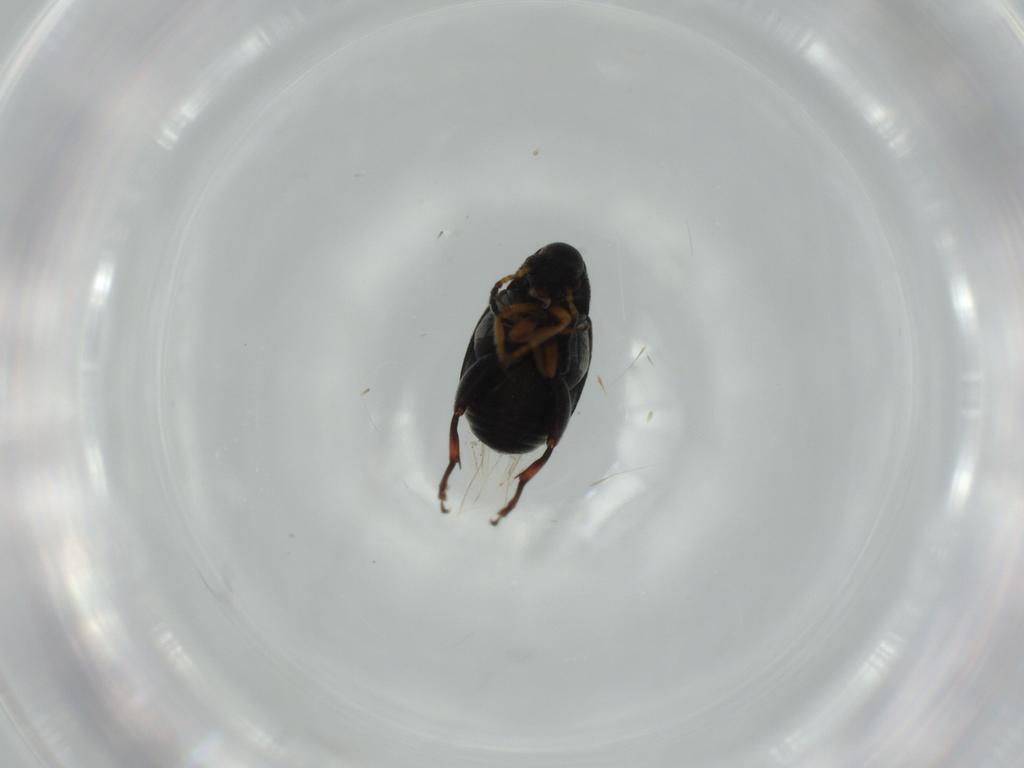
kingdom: Animalia
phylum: Arthropoda
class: Insecta
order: Coleoptera
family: Chrysomelidae
